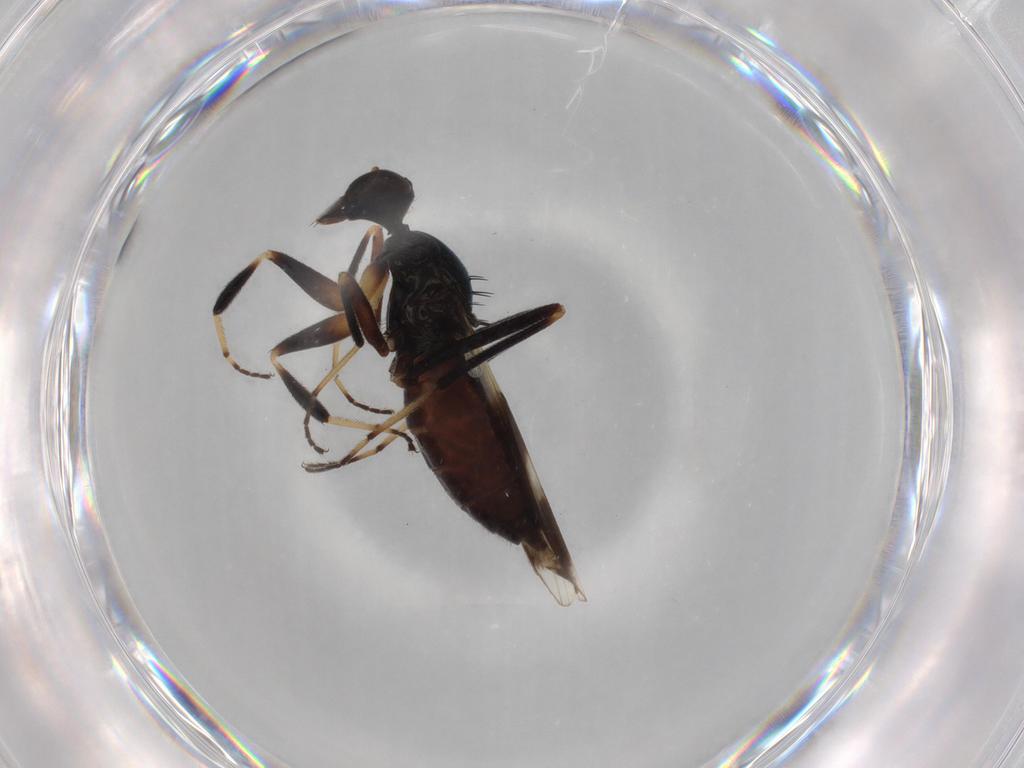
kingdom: Animalia
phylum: Arthropoda
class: Insecta
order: Diptera
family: Hybotidae
